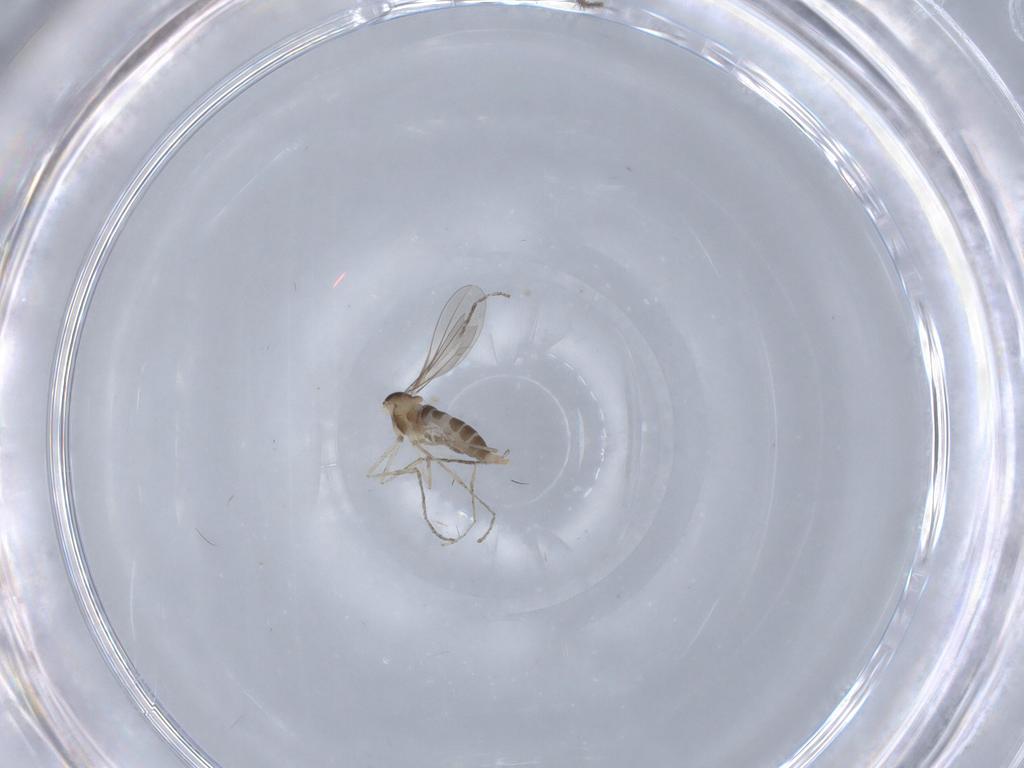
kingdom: Animalia
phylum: Arthropoda
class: Insecta
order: Diptera
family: Cecidomyiidae
